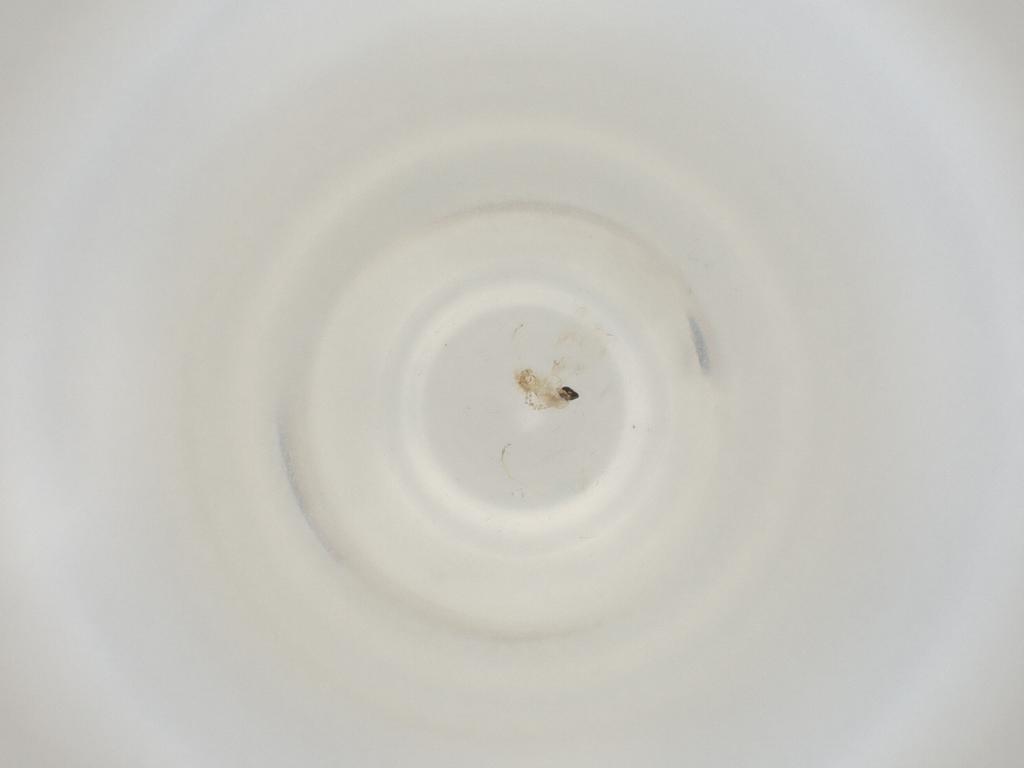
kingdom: Animalia
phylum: Arthropoda
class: Insecta
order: Diptera
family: Cecidomyiidae
